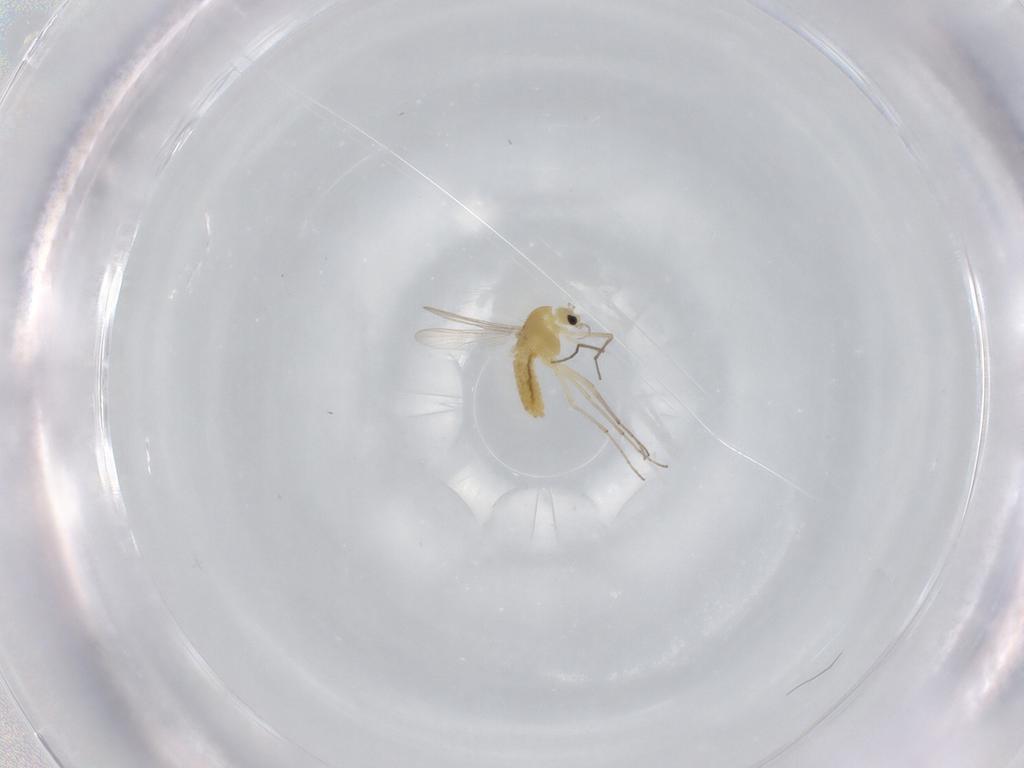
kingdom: Animalia
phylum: Arthropoda
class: Insecta
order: Diptera
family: Chironomidae
